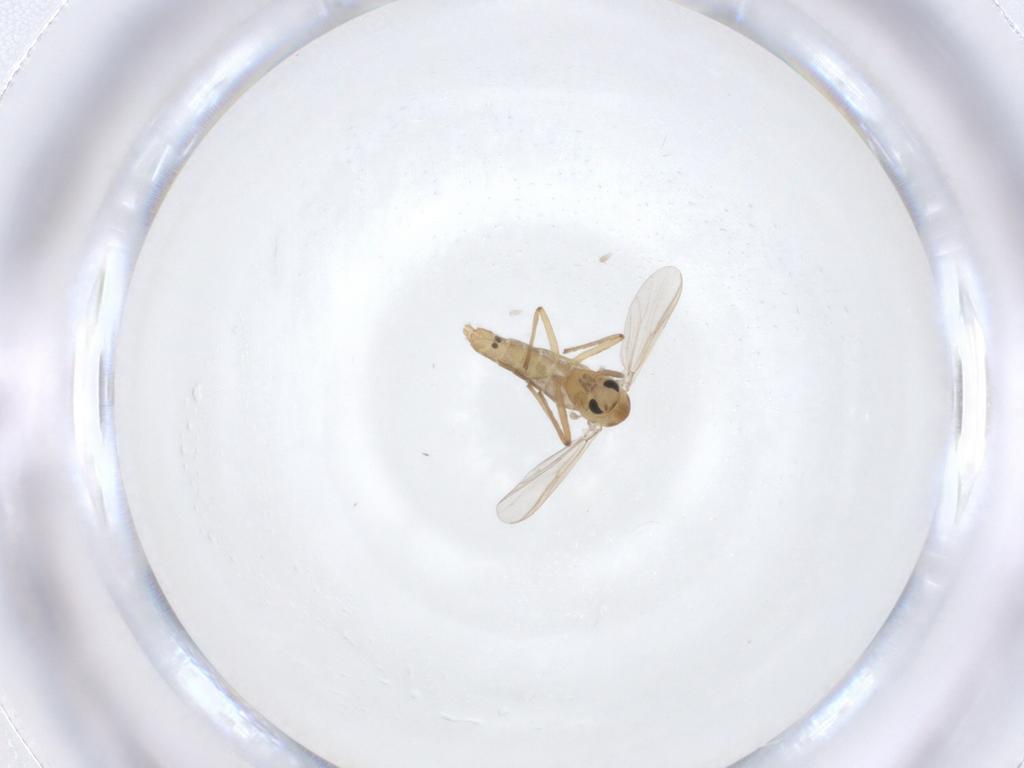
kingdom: Animalia
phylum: Arthropoda
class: Insecta
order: Diptera
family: Chironomidae
